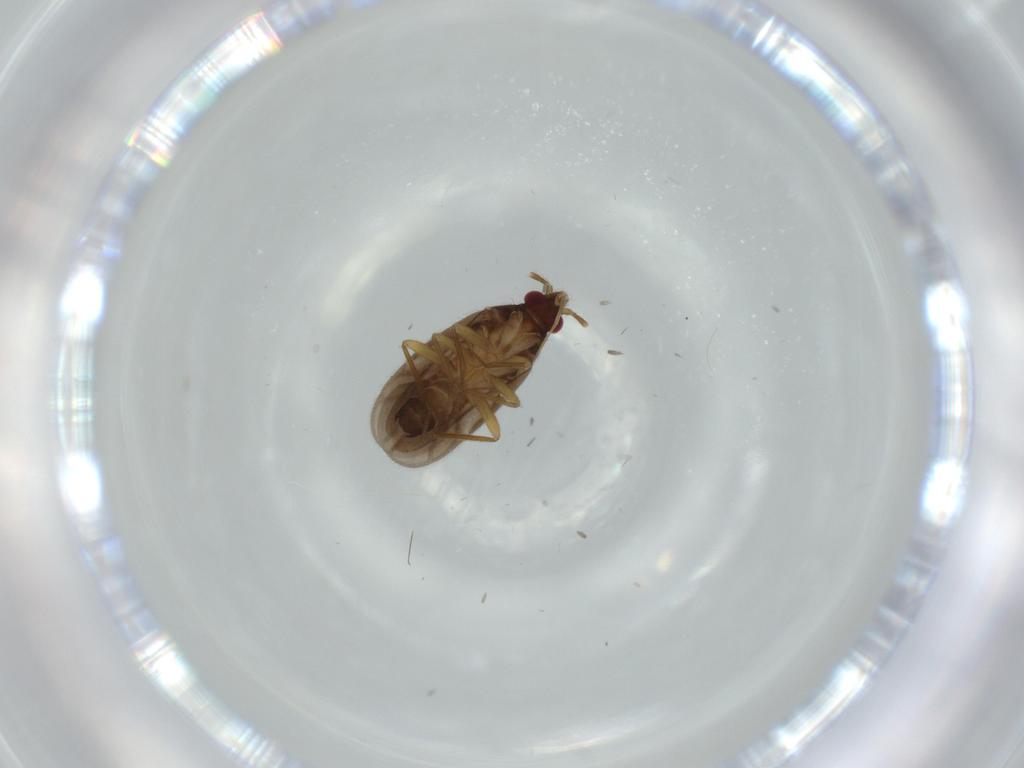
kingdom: Animalia
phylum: Arthropoda
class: Insecta
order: Hemiptera
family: Ceratocombidae
